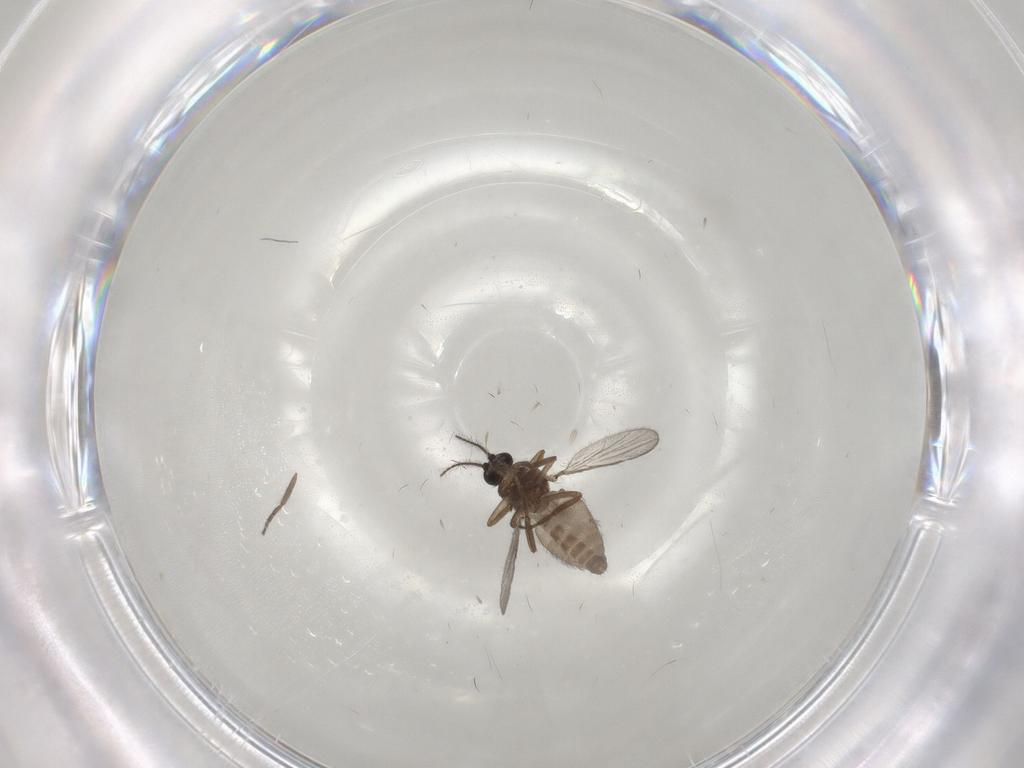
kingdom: Animalia
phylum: Arthropoda
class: Insecta
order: Diptera
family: Ceratopogonidae
